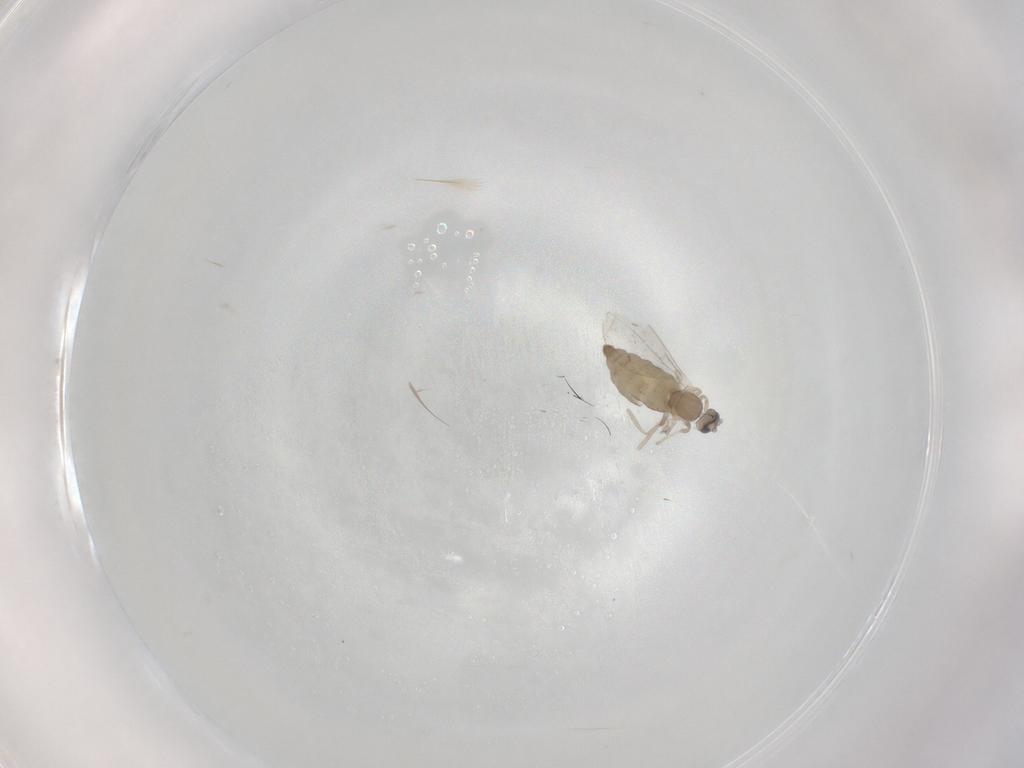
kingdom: Animalia
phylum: Arthropoda
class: Insecta
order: Diptera
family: Cecidomyiidae
